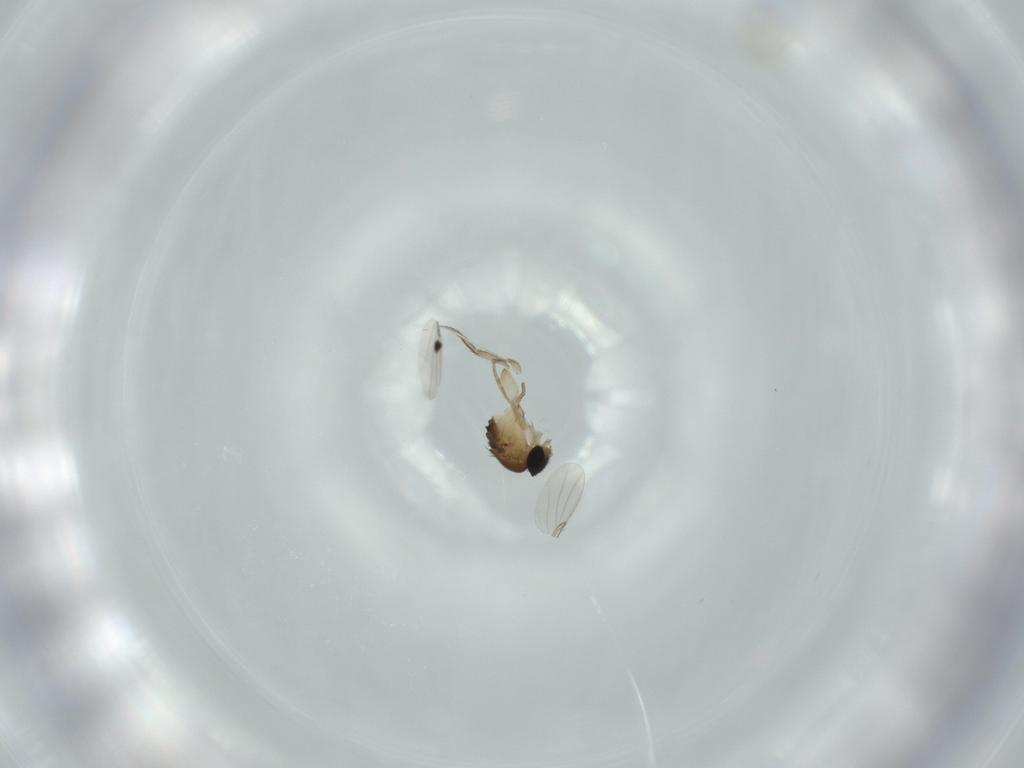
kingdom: Animalia
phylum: Arthropoda
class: Insecta
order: Diptera
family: Phoridae
